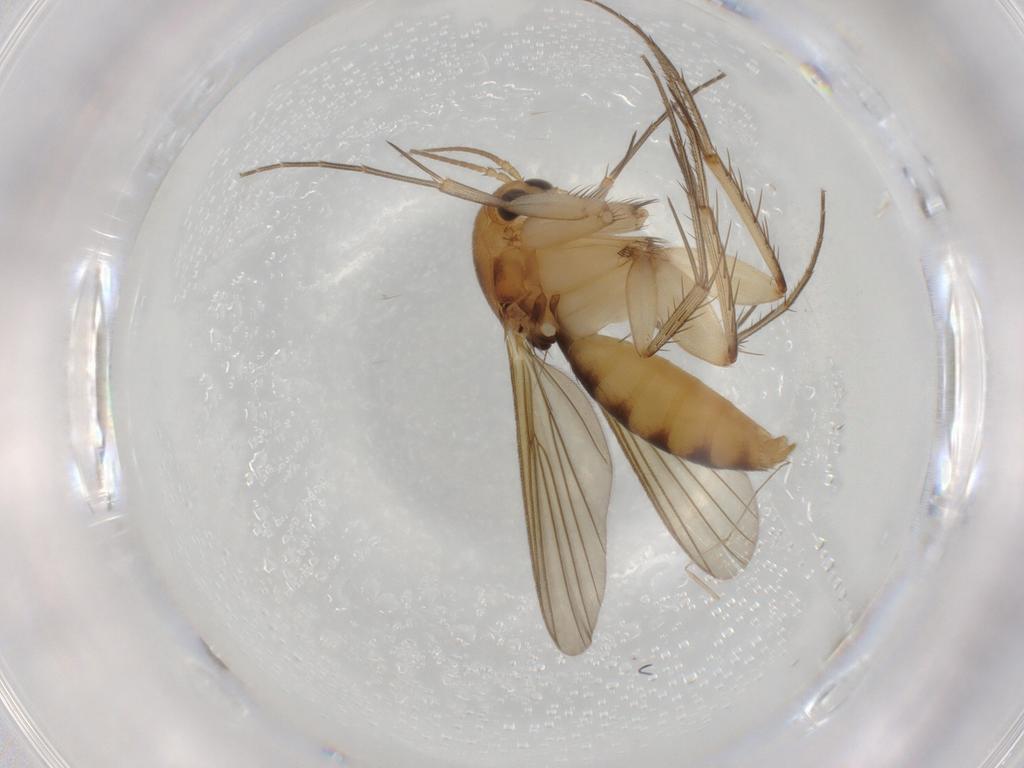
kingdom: Animalia
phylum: Arthropoda
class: Insecta
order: Diptera
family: Mycetophilidae
